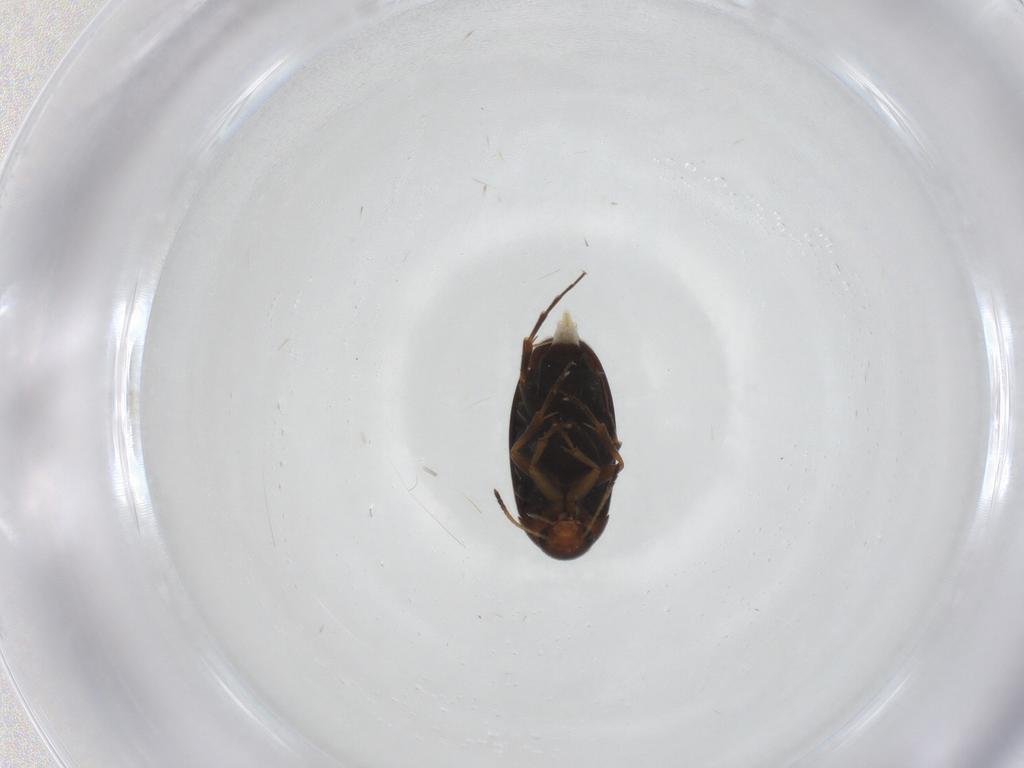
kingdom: Animalia
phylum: Arthropoda
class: Insecta
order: Coleoptera
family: Scraptiidae
